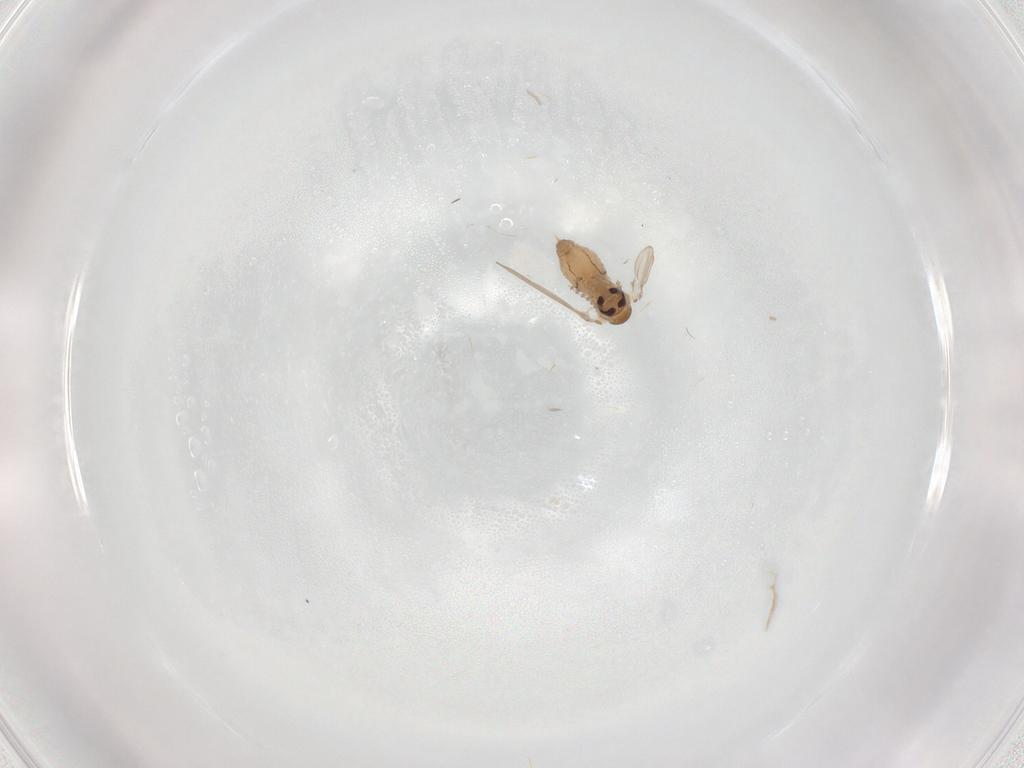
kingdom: Animalia
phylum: Arthropoda
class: Insecta
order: Diptera
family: Psychodidae
